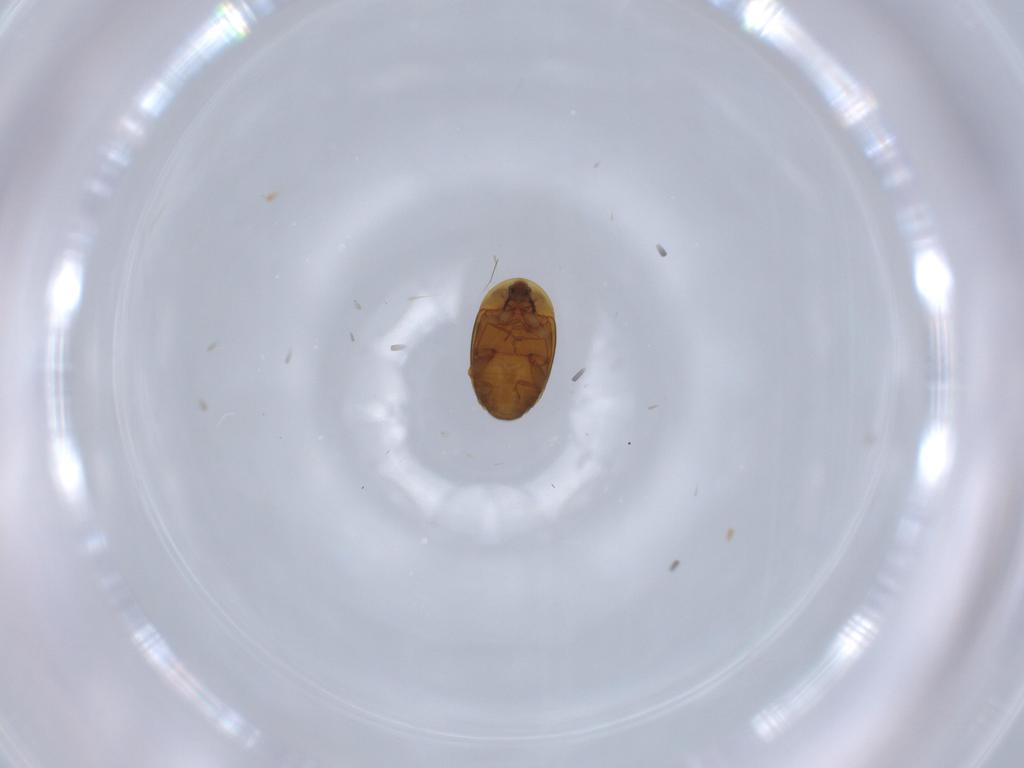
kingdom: Animalia
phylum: Arthropoda
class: Insecta
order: Coleoptera
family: Corylophidae
